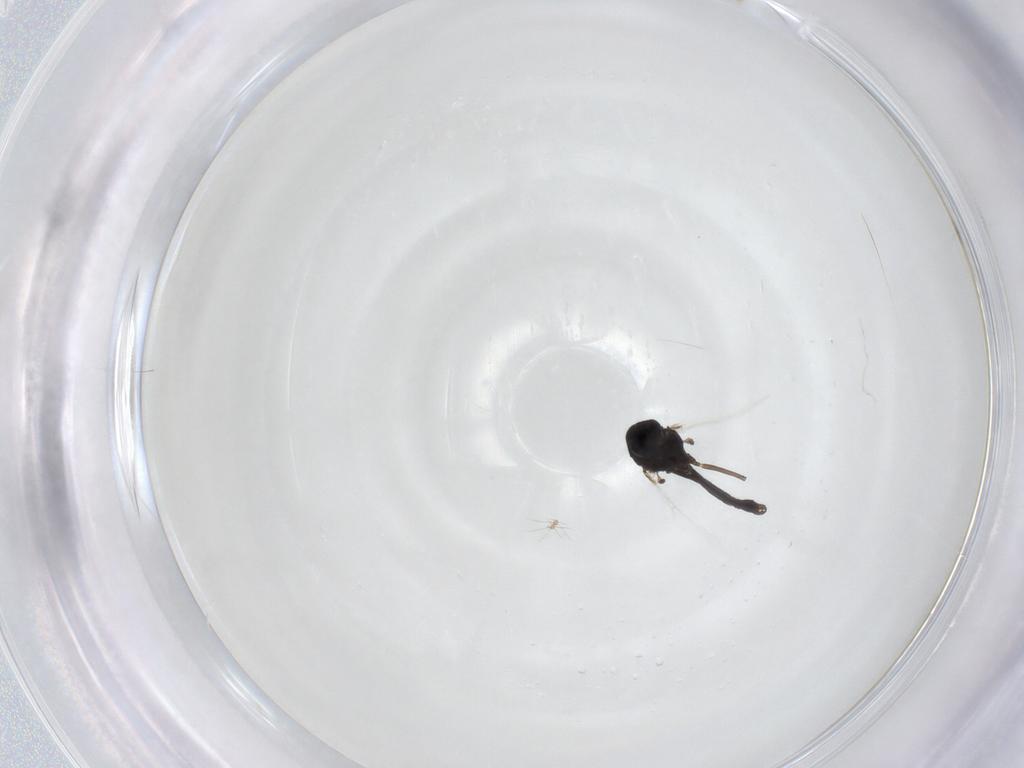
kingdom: Animalia
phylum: Arthropoda
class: Insecta
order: Diptera
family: Chironomidae
